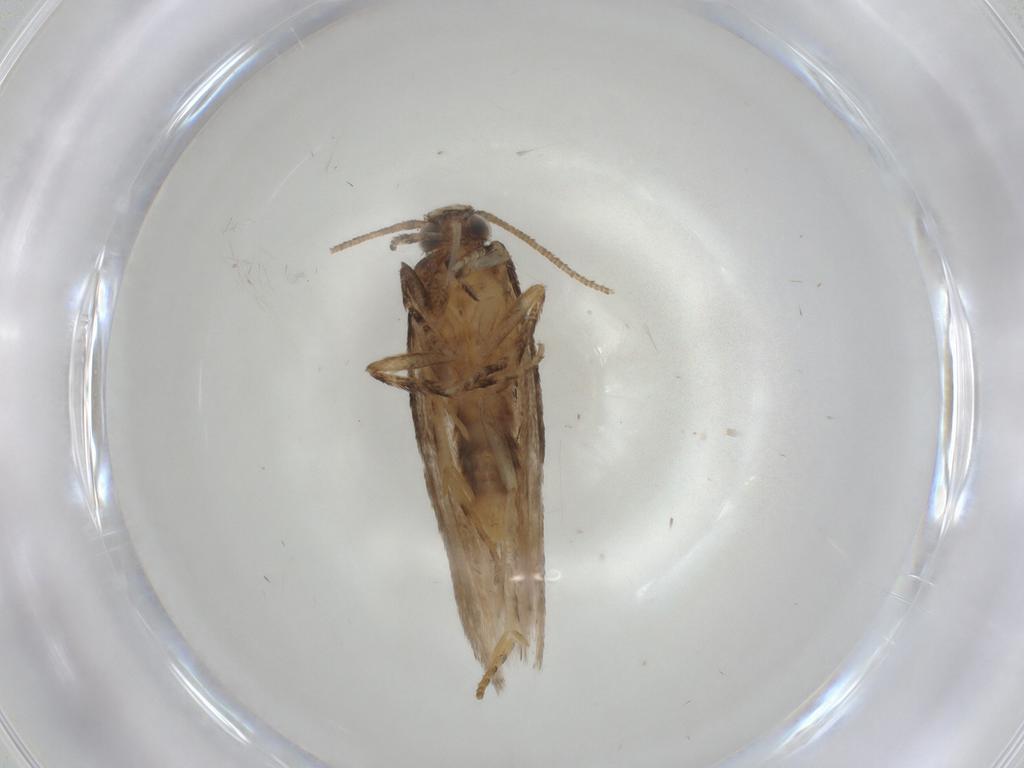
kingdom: Animalia
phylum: Arthropoda
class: Insecta
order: Lepidoptera
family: Gelechiidae
